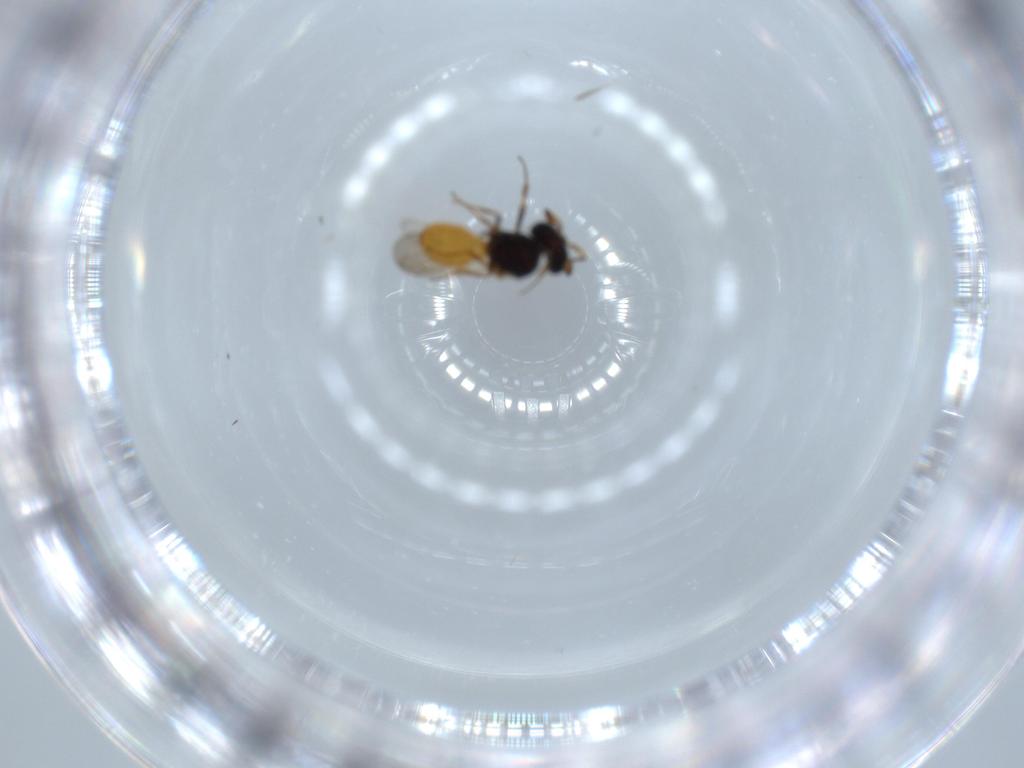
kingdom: Animalia
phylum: Arthropoda
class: Insecta
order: Hymenoptera
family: Scelionidae
